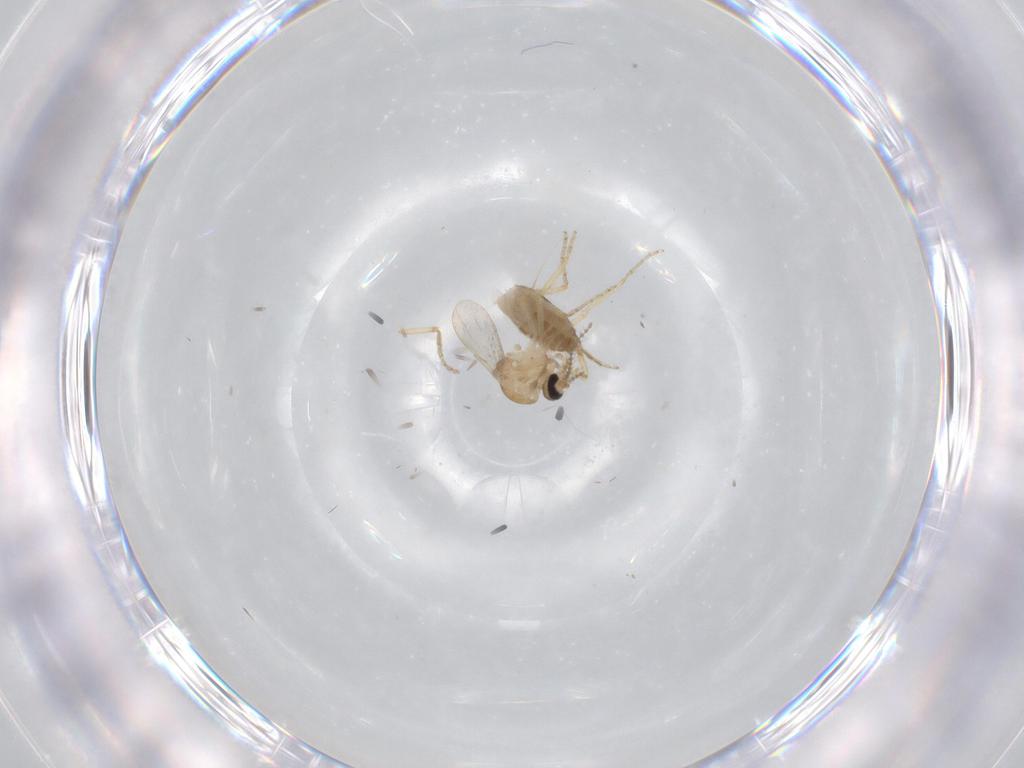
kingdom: Animalia
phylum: Arthropoda
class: Insecta
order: Diptera
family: Ceratopogonidae
